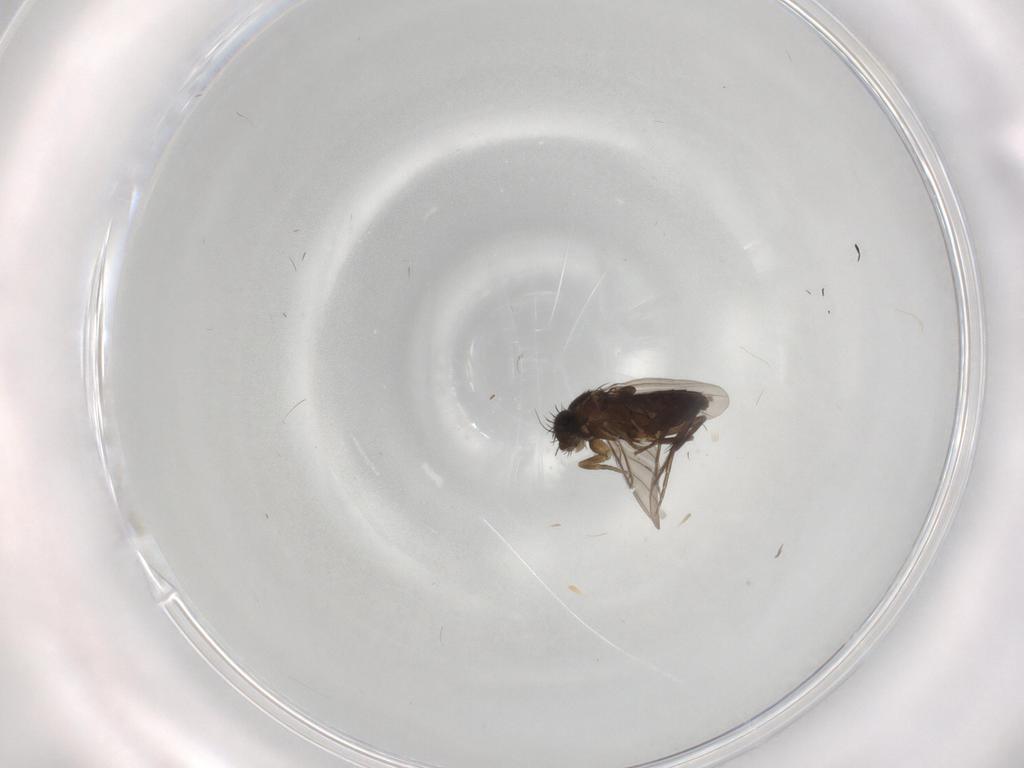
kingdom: Animalia
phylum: Arthropoda
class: Insecta
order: Diptera
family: Phoridae
